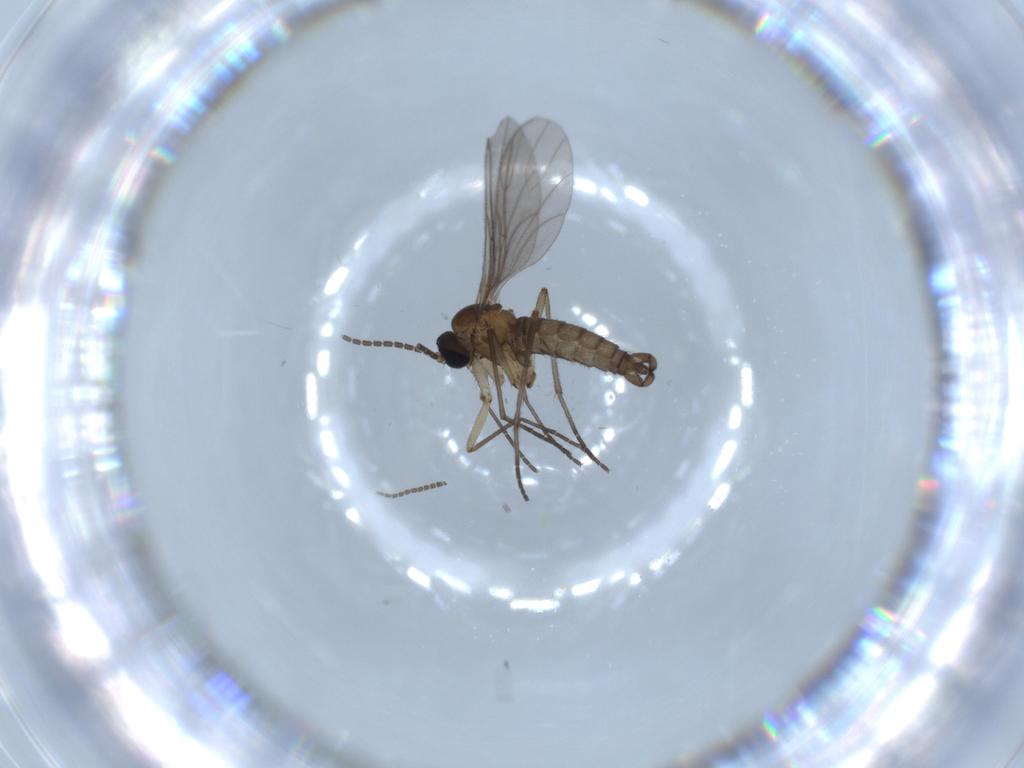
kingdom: Animalia
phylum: Arthropoda
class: Insecta
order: Diptera
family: Sciaridae
